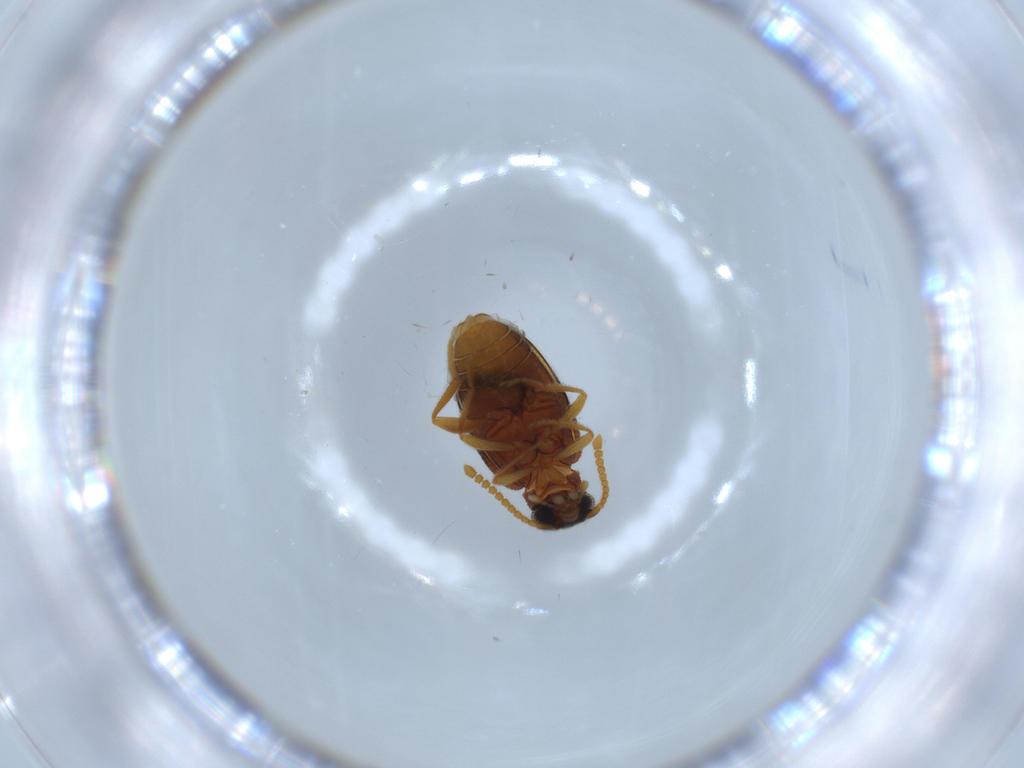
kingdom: Animalia
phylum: Arthropoda
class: Insecta
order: Coleoptera
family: Aderidae
